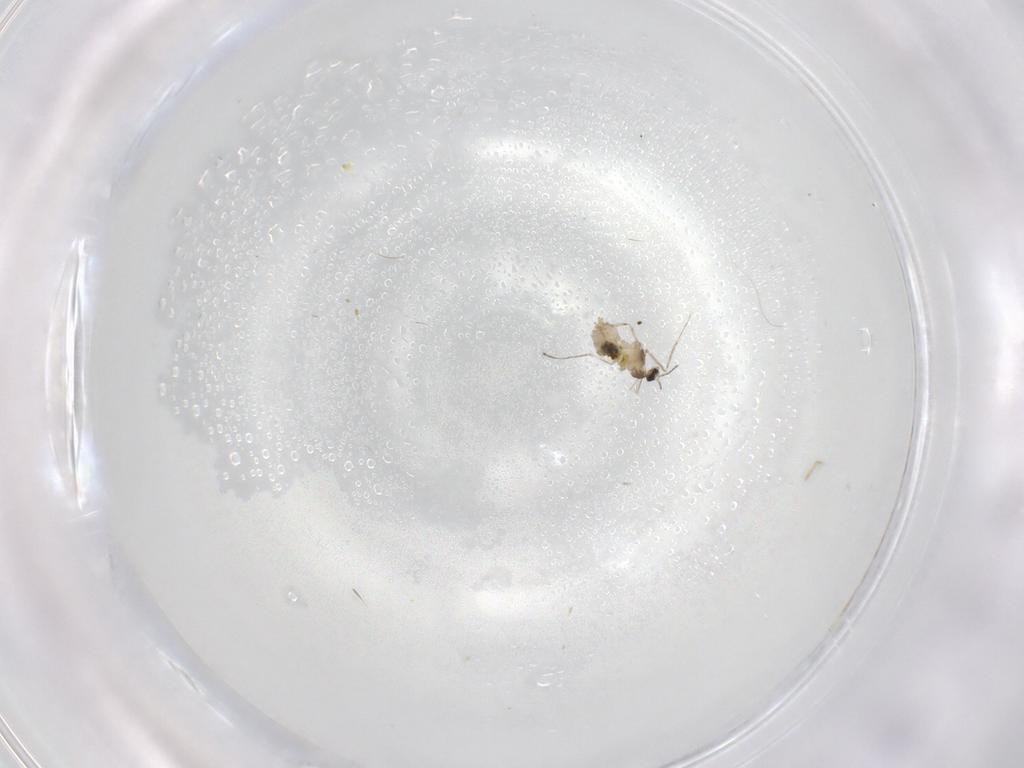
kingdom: Animalia
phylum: Arthropoda
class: Insecta
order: Diptera
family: Cecidomyiidae
